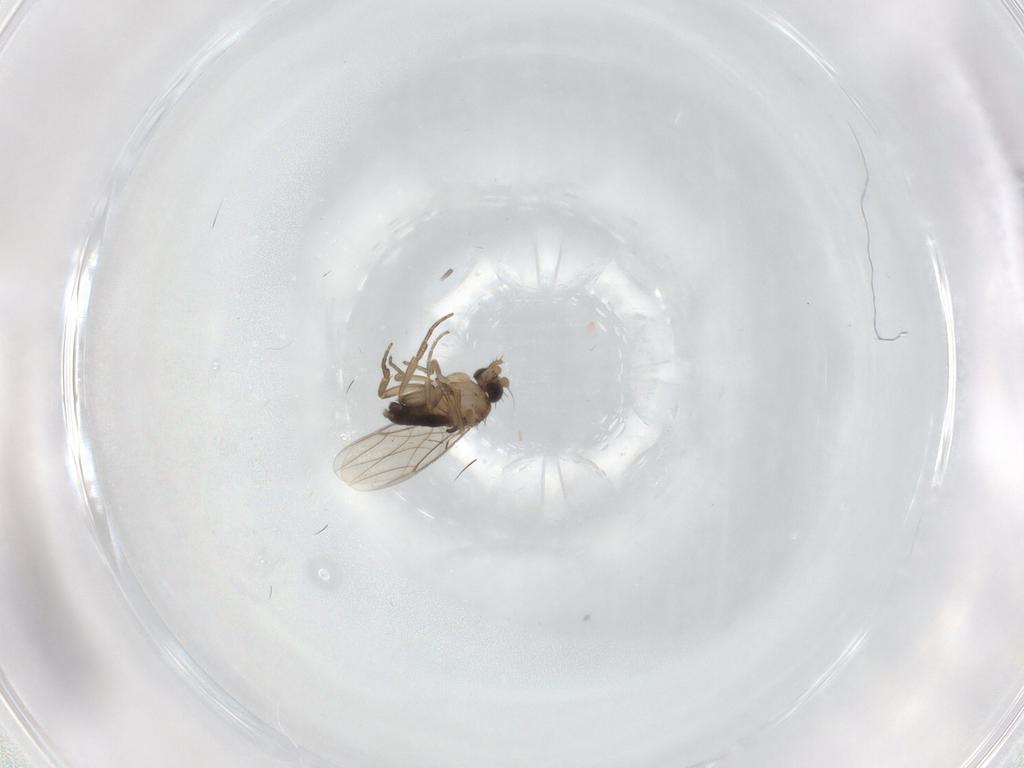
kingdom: Animalia
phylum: Arthropoda
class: Insecta
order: Diptera
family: Phoridae
